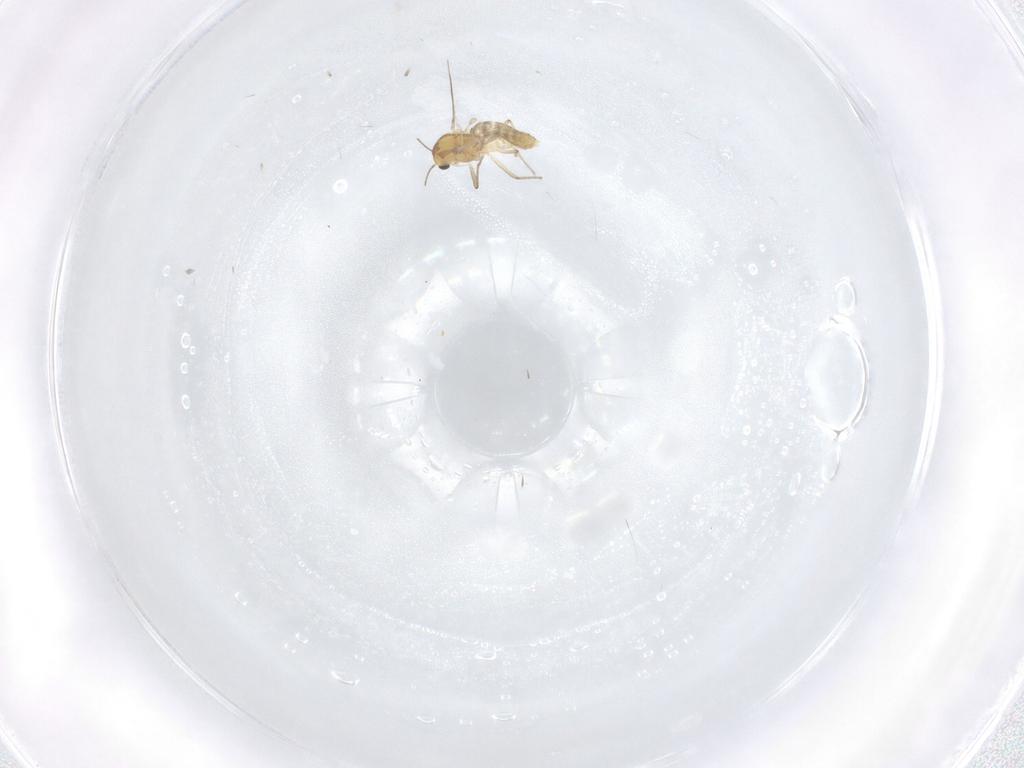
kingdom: Animalia
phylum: Arthropoda
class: Insecta
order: Diptera
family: Chironomidae
